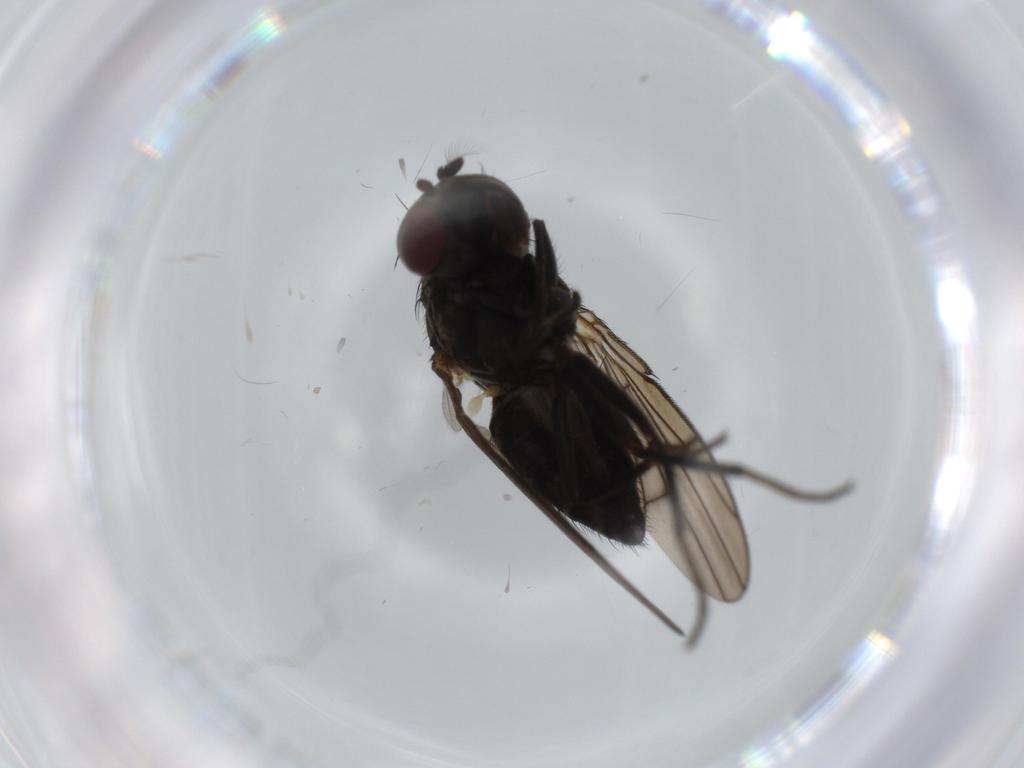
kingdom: Animalia
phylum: Arthropoda
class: Insecta
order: Diptera
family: Ephydridae
